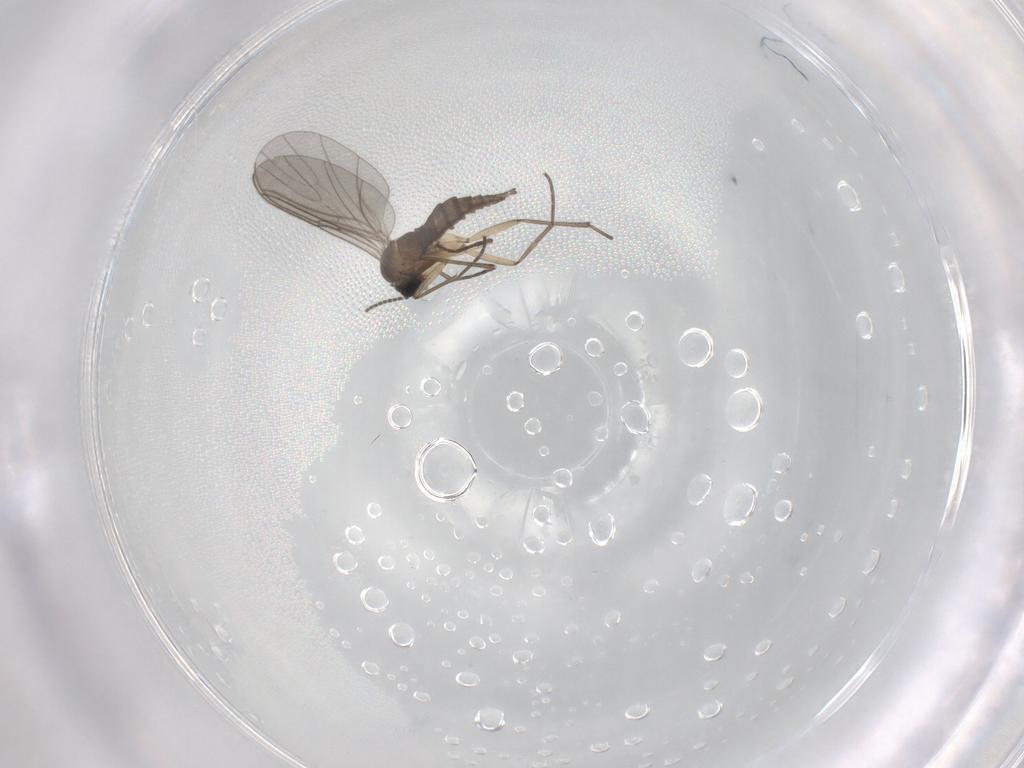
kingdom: Animalia
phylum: Arthropoda
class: Insecta
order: Diptera
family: Sciaridae
